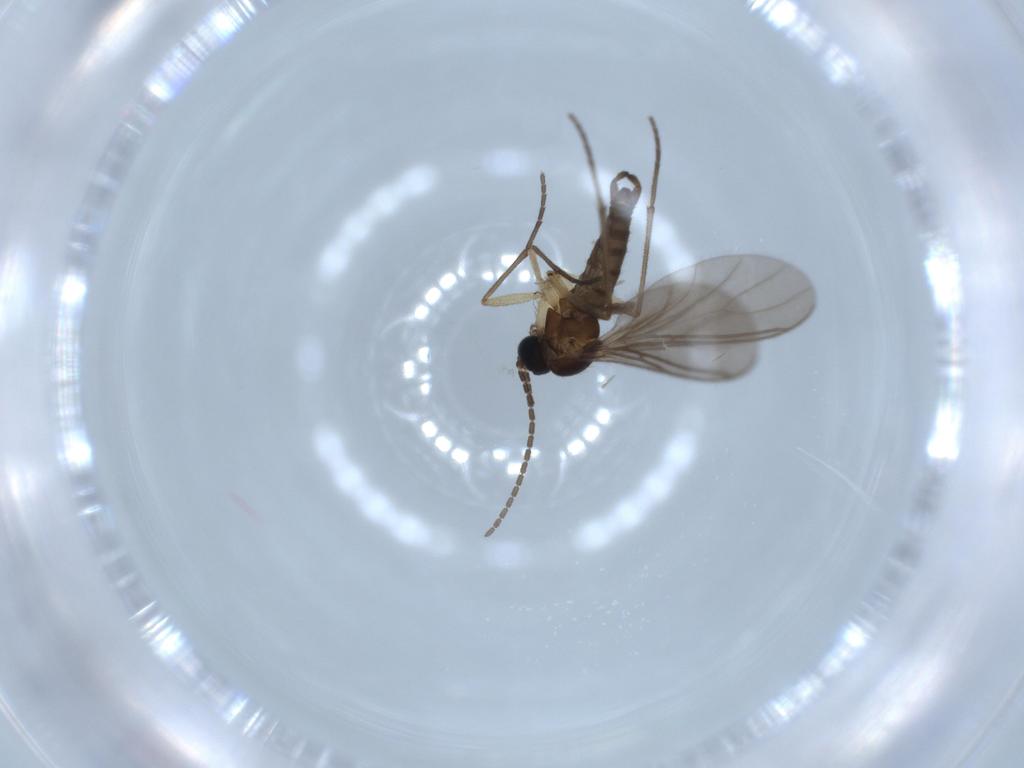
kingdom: Animalia
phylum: Arthropoda
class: Insecta
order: Diptera
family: Sciaridae
